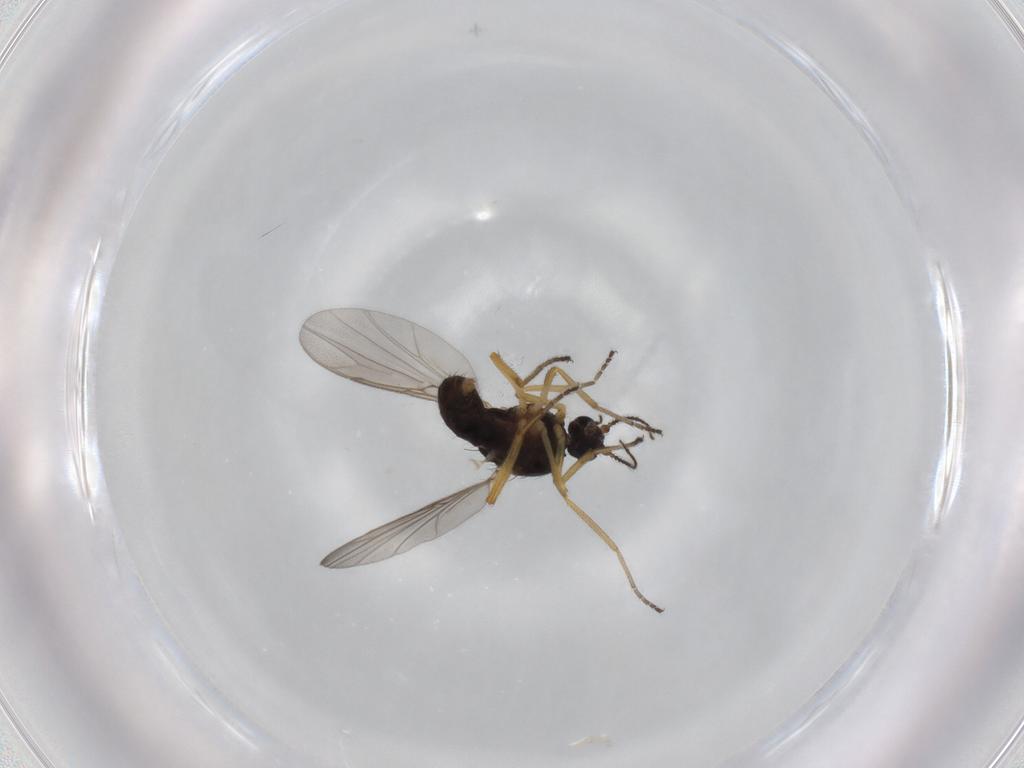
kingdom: Animalia
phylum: Arthropoda
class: Insecta
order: Diptera
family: Ceratopogonidae
